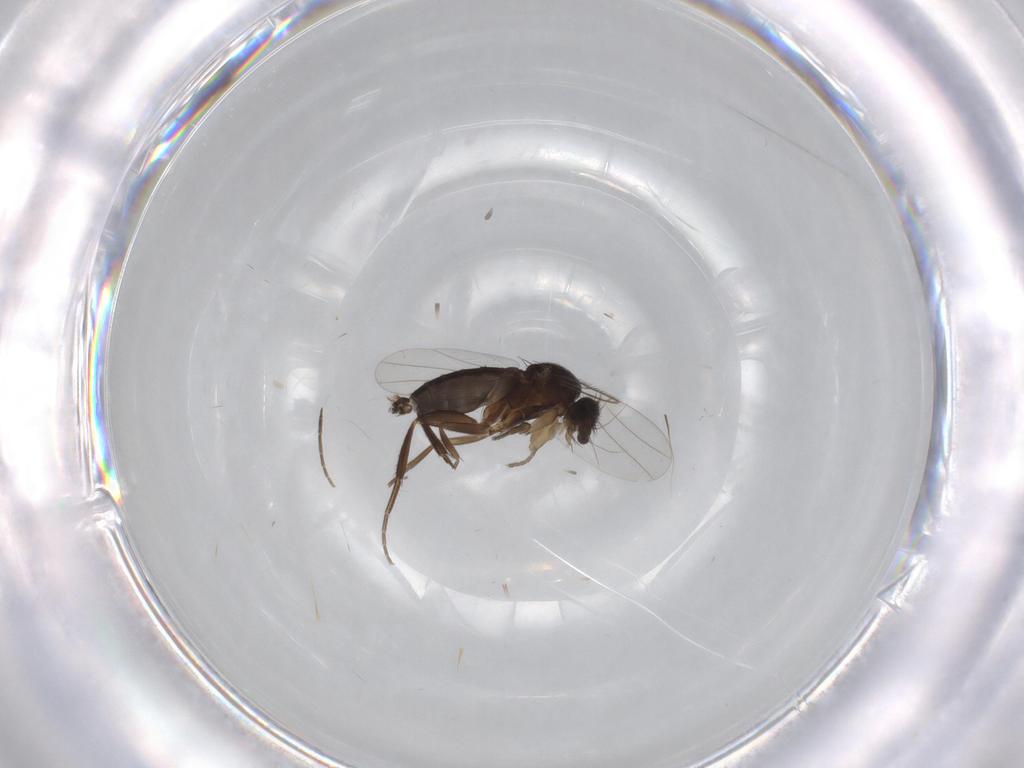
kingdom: Animalia
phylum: Arthropoda
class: Insecta
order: Diptera
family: Phoridae
